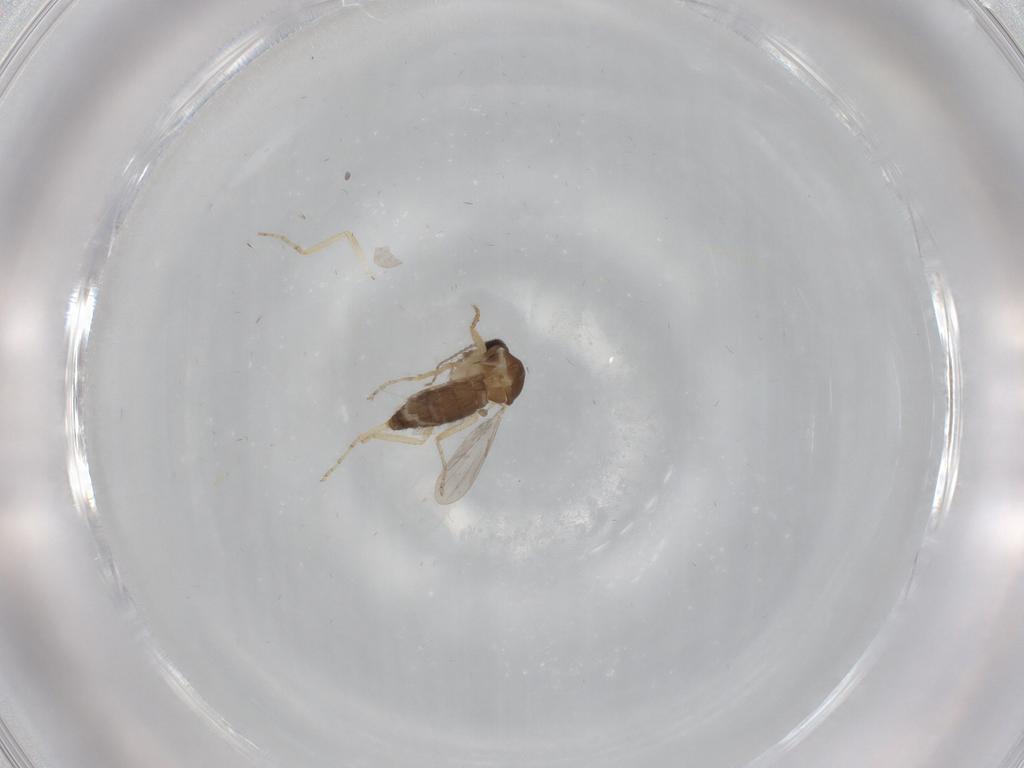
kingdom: Animalia
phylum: Arthropoda
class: Insecta
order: Diptera
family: Ceratopogonidae
